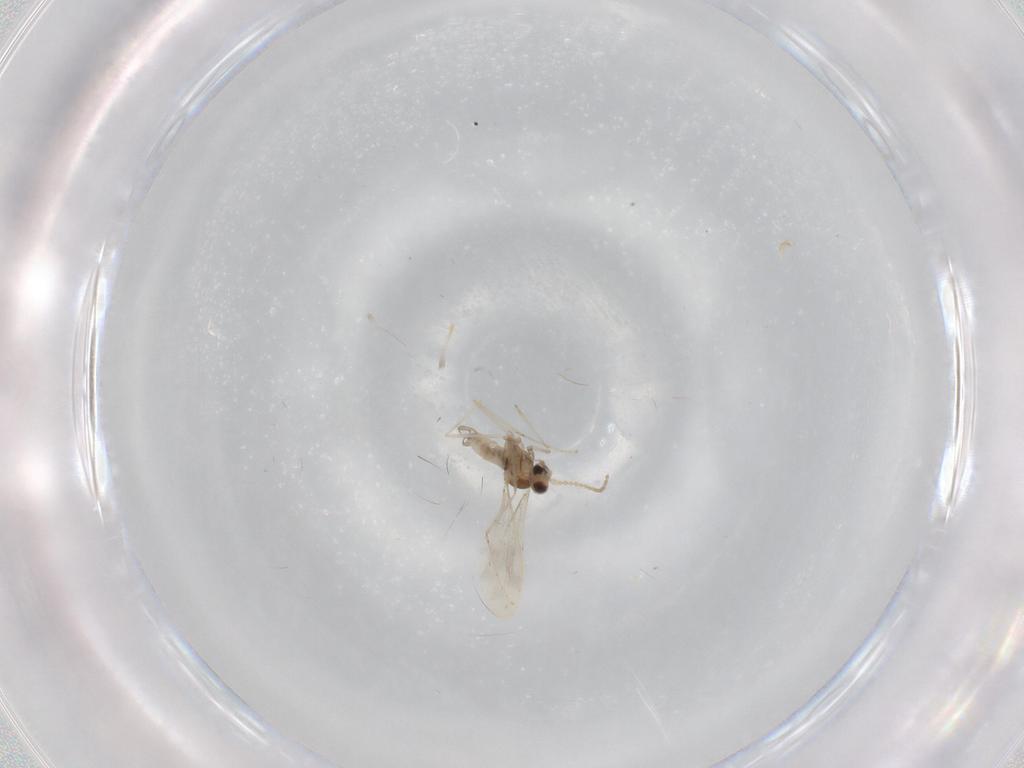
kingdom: Animalia
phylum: Arthropoda
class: Insecta
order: Diptera
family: Cecidomyiidae
